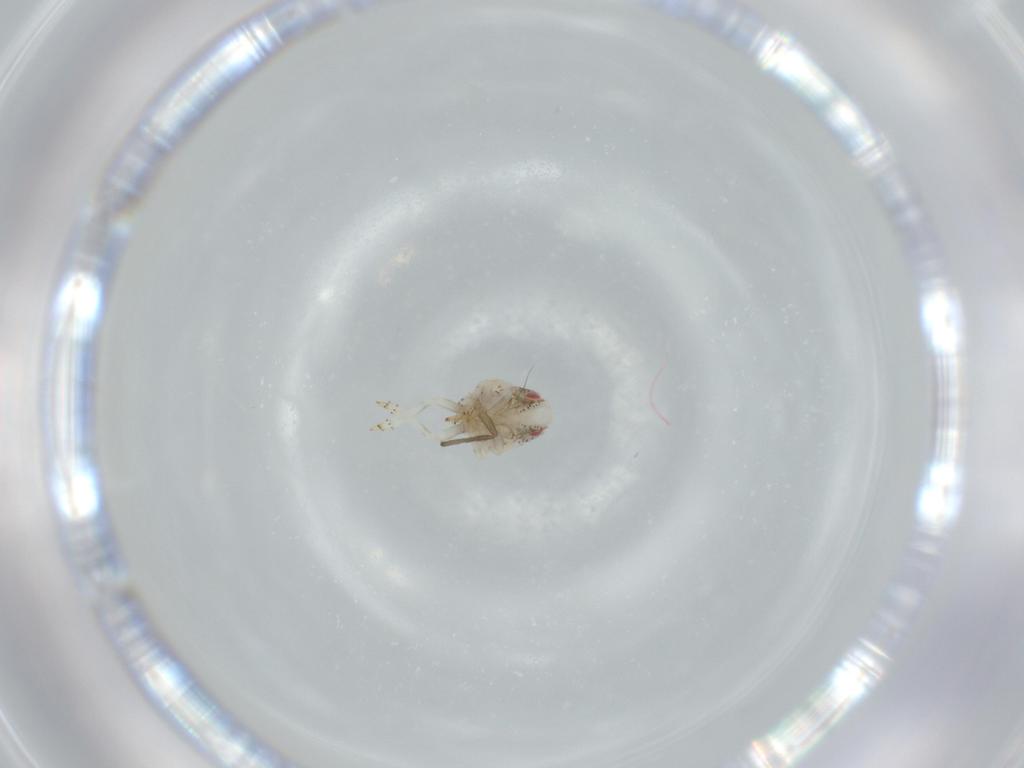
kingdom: Animalia
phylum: Arthropoda
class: Insecta
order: Hemiptera
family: Acanaloniidae
